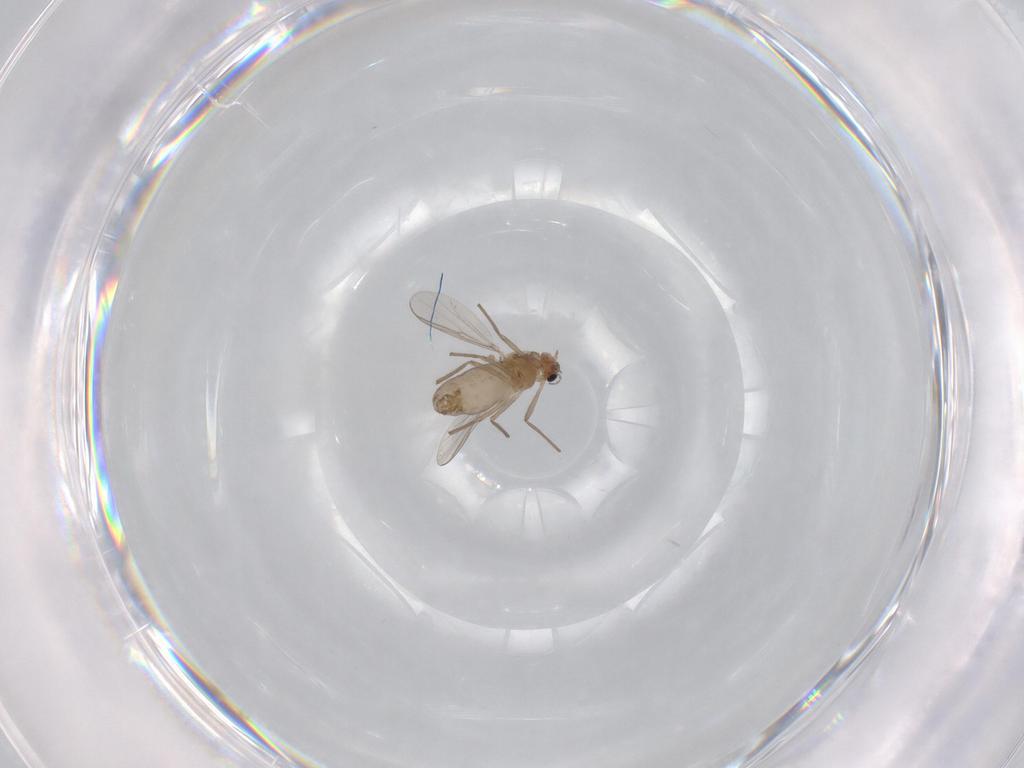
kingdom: Animalia
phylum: Arthropoda
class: Insecta
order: Diptera
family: Chironomidae
